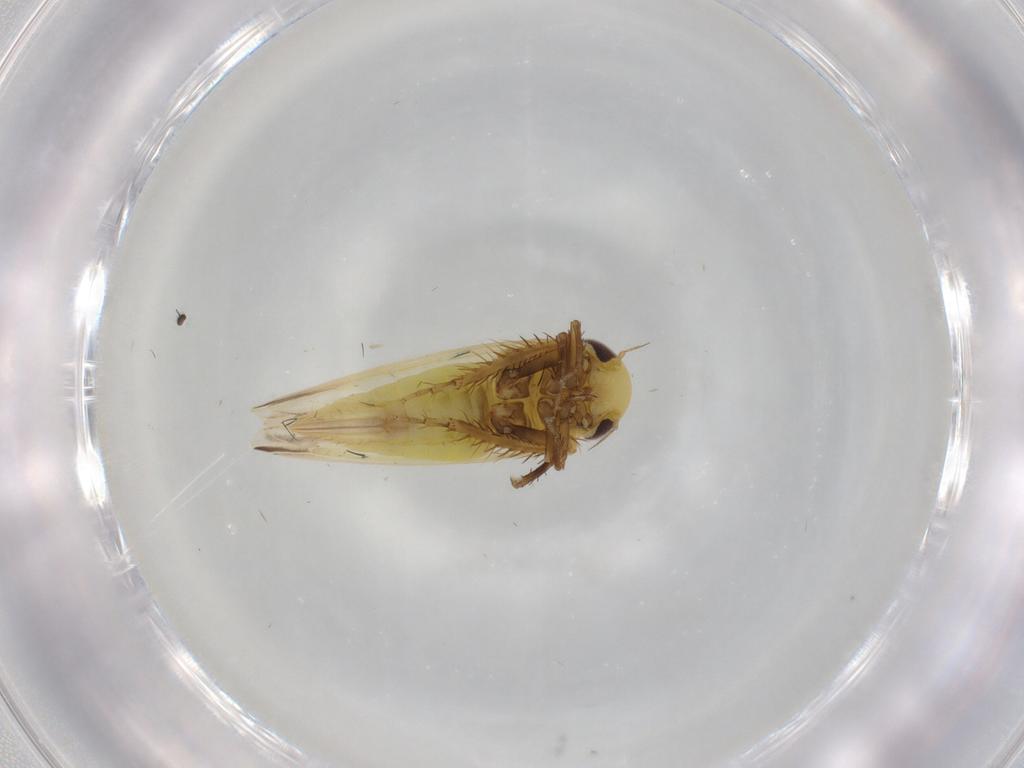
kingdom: Animalia
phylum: Arthropoda
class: Insecta
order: Hemiptera
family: Cicadellidae
